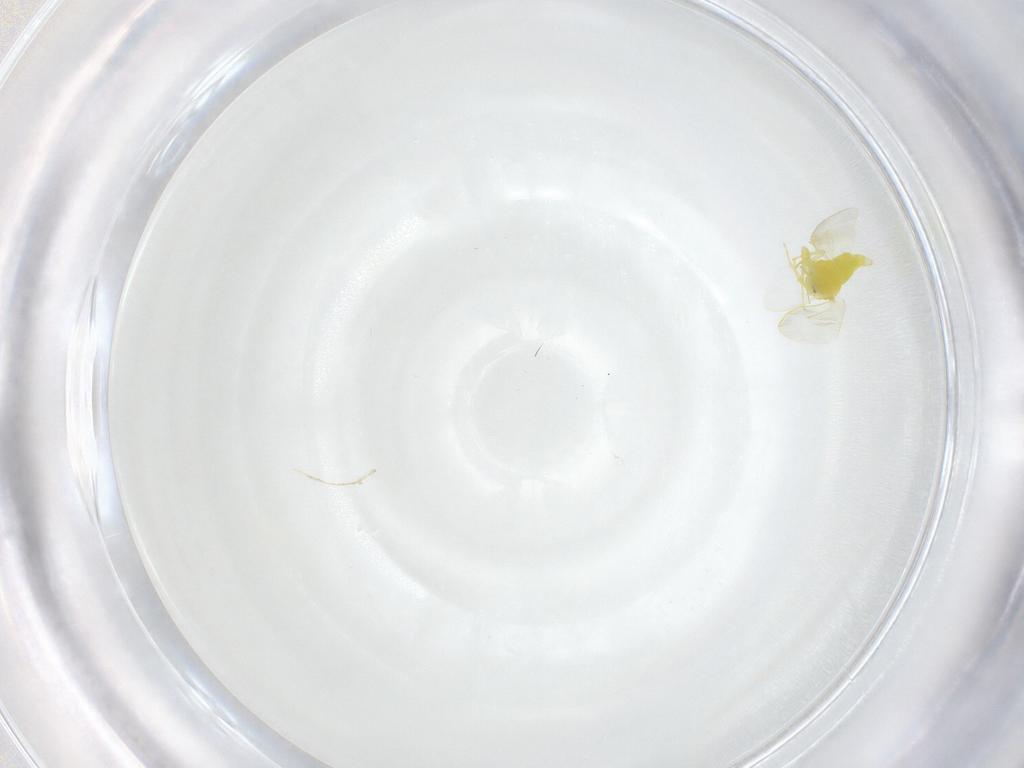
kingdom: Animalia
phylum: Arthropoda
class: Insecta
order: Hemiptera
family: Aleyrodidae
